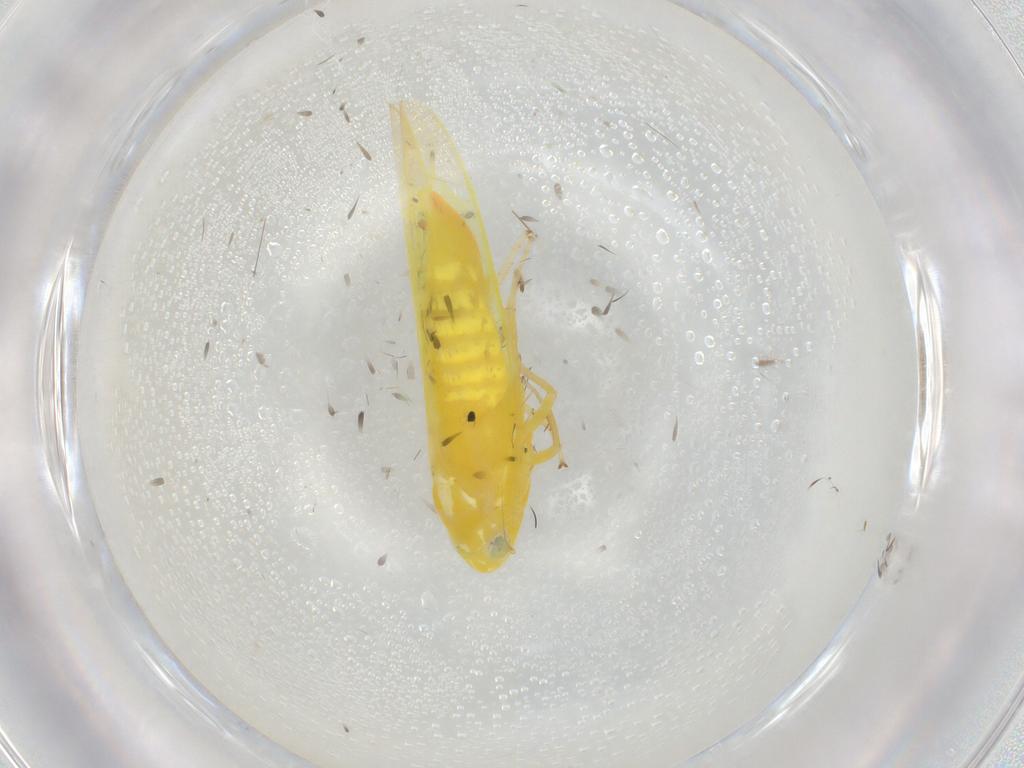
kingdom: Animalia
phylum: Arthropoda
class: Insecta
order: Hemiptera
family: Cicadellidae
